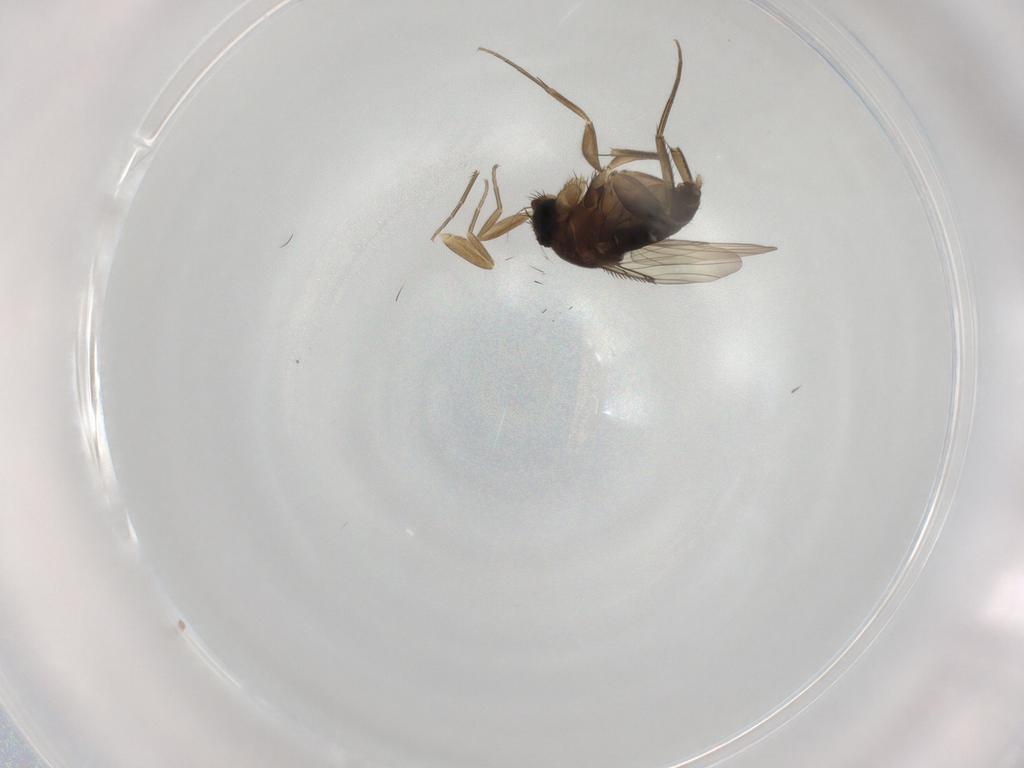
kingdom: Animalia
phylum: Arthropoda
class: Insecta
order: Diptera
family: Phoridae
